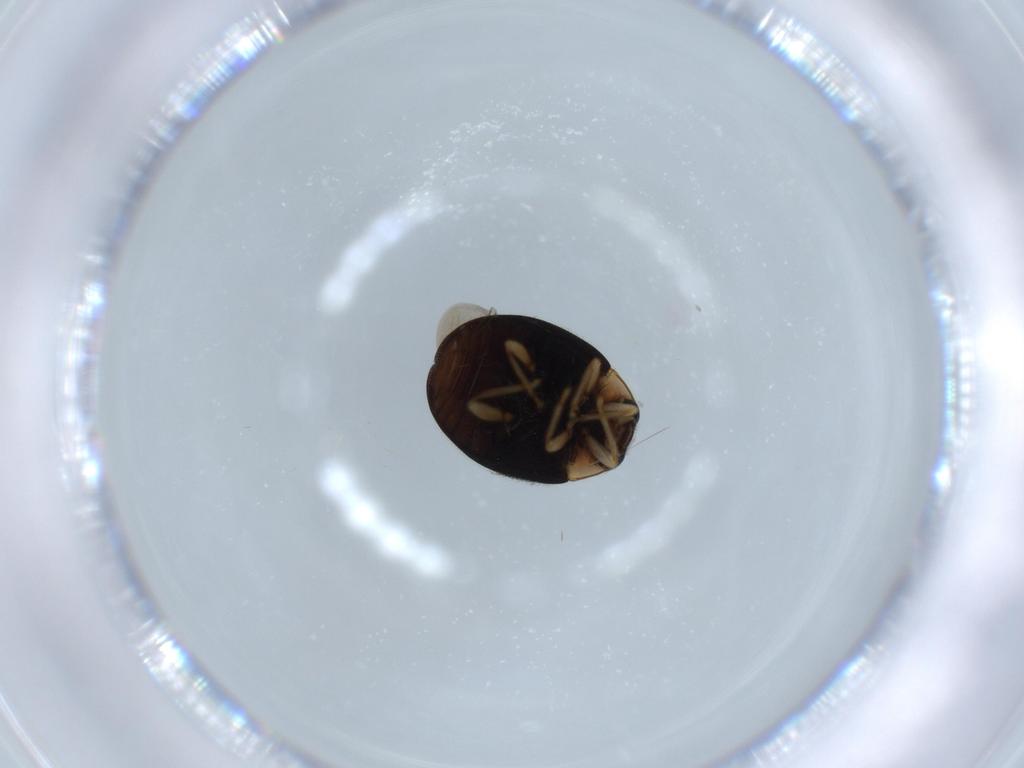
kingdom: Animalia
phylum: Arthropoda
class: Insecta
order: Coleoptera
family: Coccinellidae
